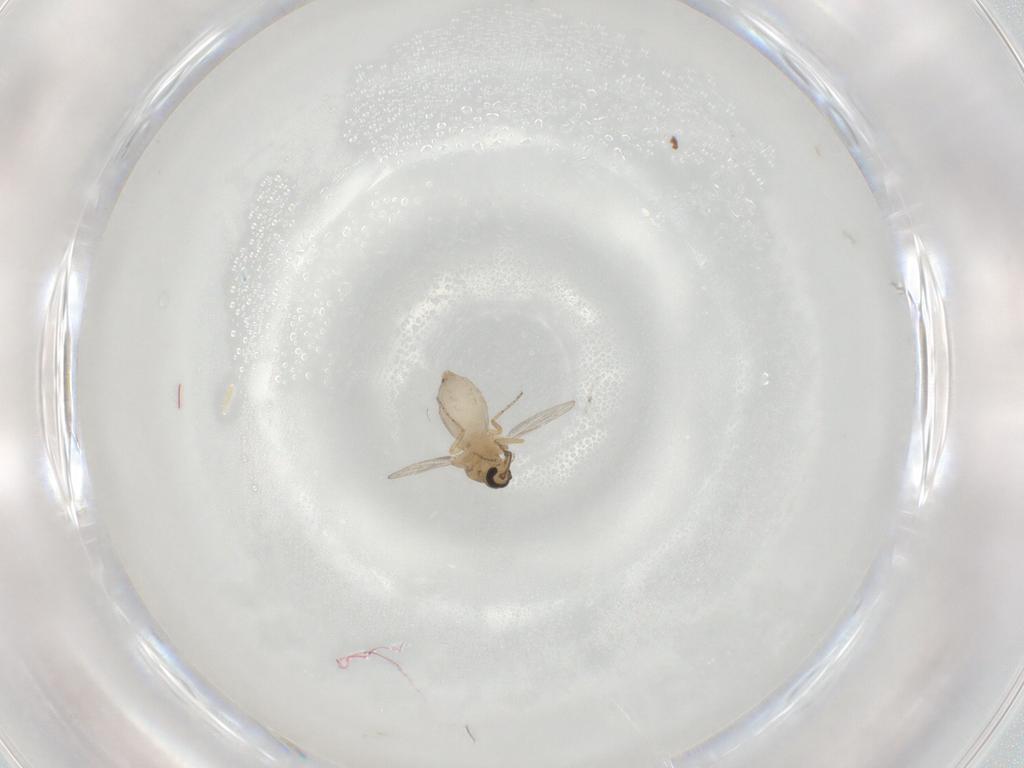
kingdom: Animalia
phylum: Arthropoda
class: Insecta
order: Diptera
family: Ceratopogonidae
